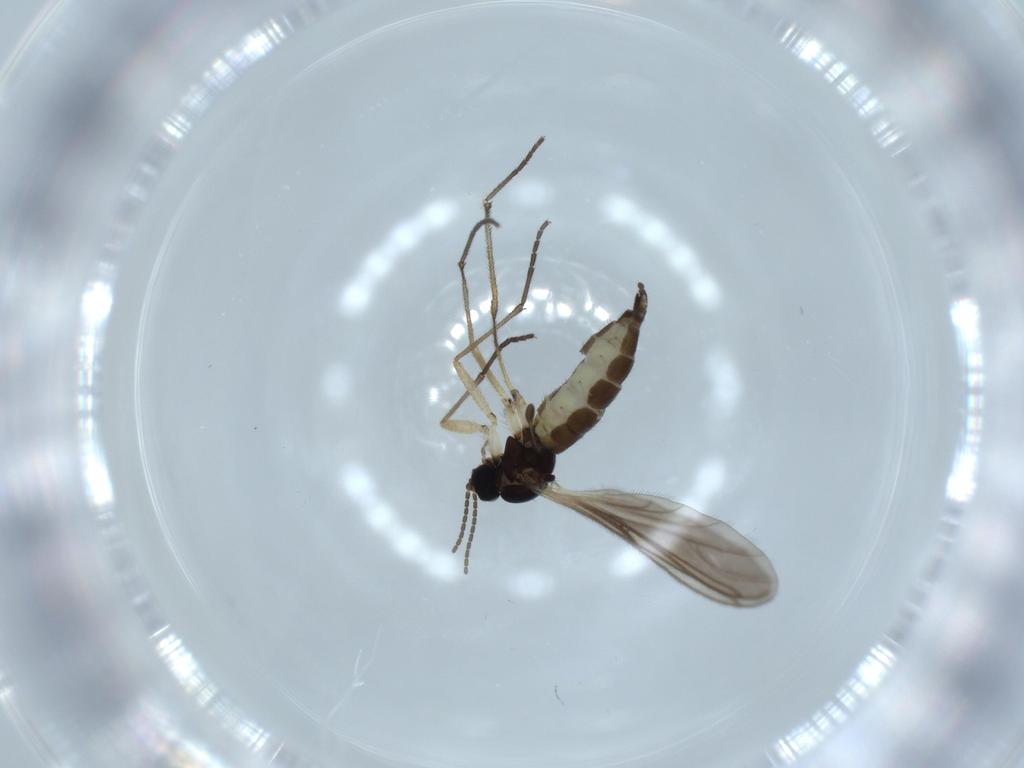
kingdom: Animalia
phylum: Arthropoda
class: Insecta
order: Diptera
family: Sciaridae
